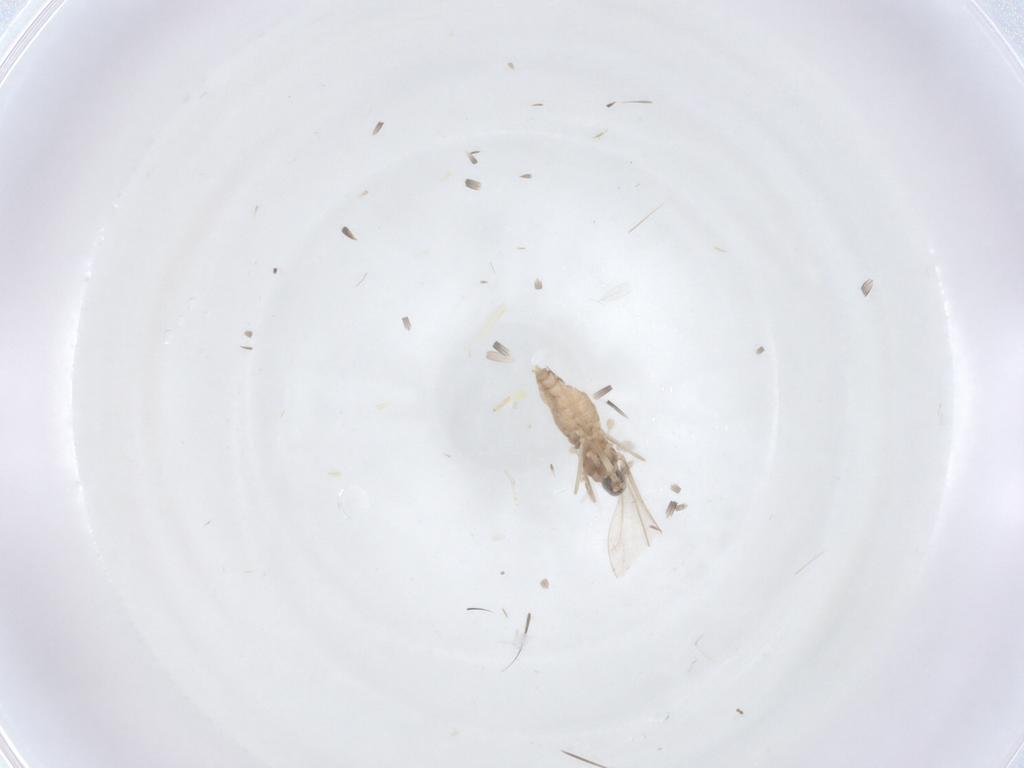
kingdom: Animalia
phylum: Arthropoda
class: Insecta
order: Diptera
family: Cecidomyiidae
